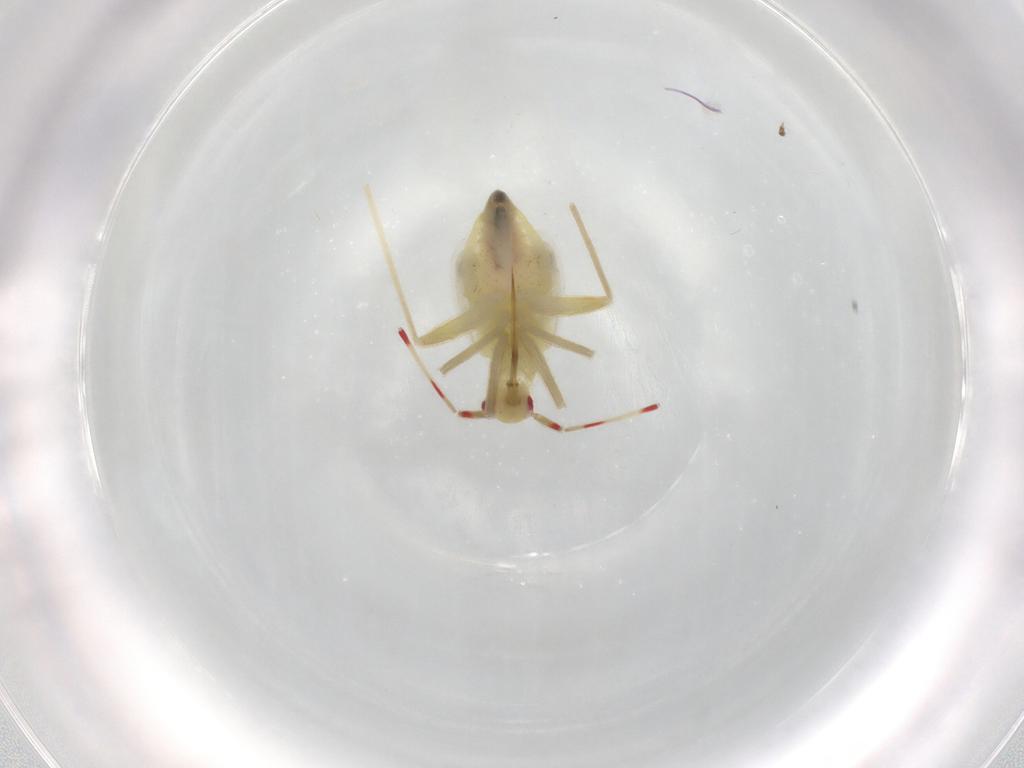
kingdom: Animalia
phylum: Arthropoda
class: Insecta
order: Hemiptera
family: Miridae
